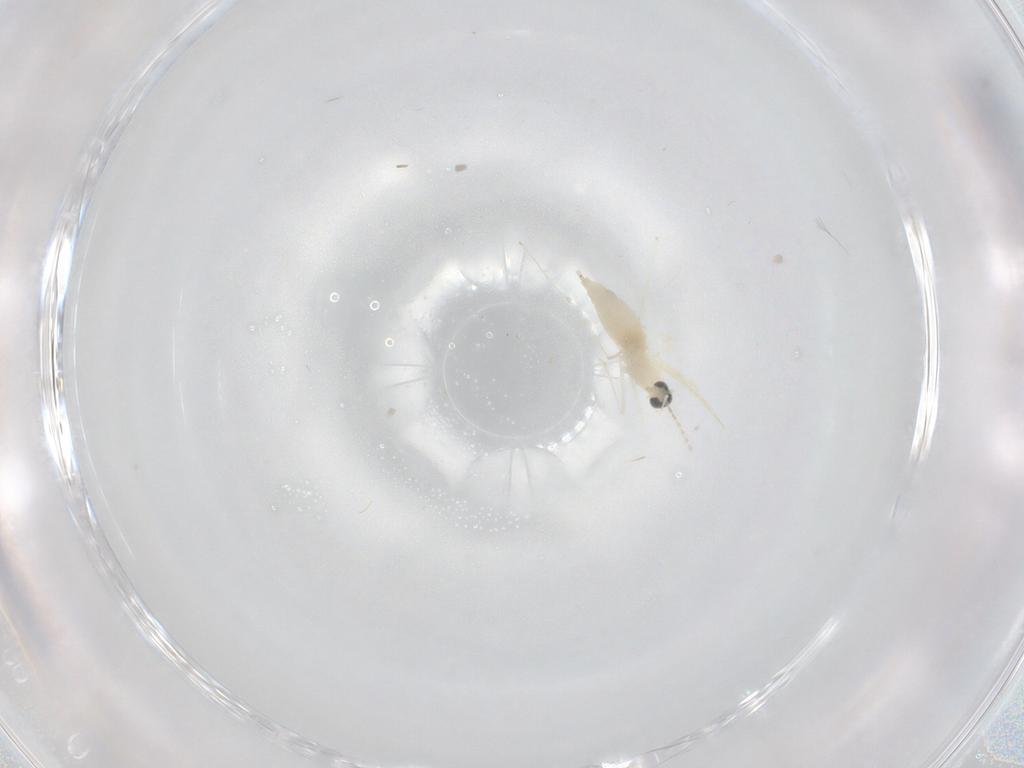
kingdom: Animalia
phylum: Arthropoda
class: Insecta
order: Diptera
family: Cecidomyiidae
